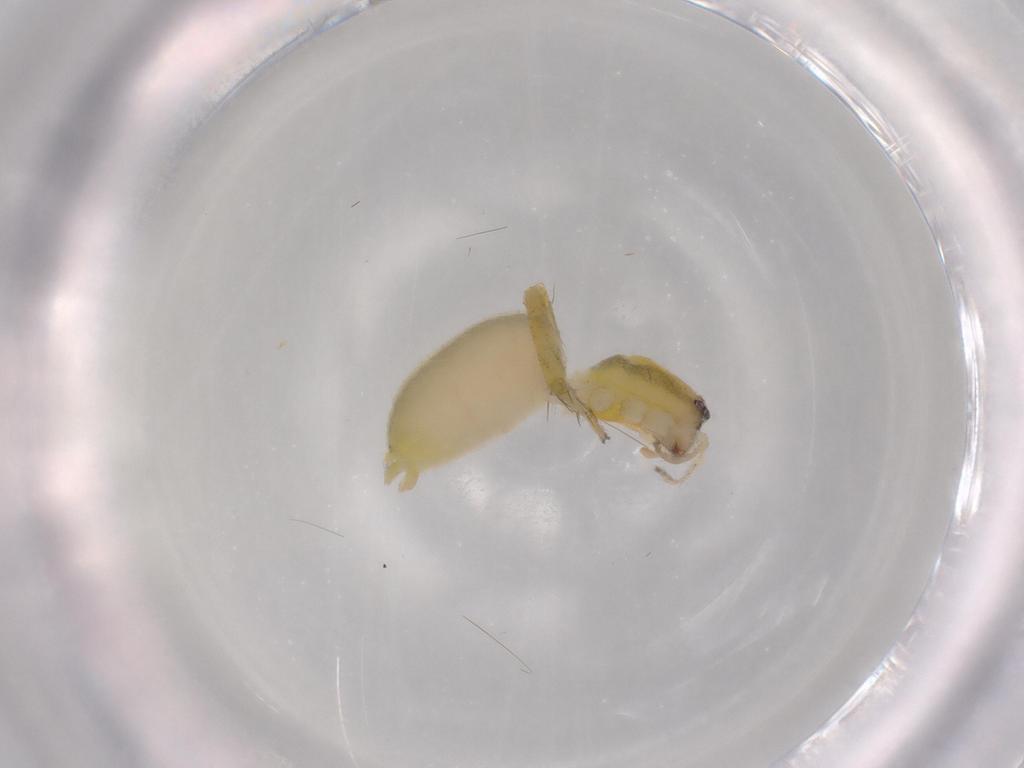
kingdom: Animalia
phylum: Arthropoda
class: Arachnida
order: Araneae
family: Anyphaenidae
